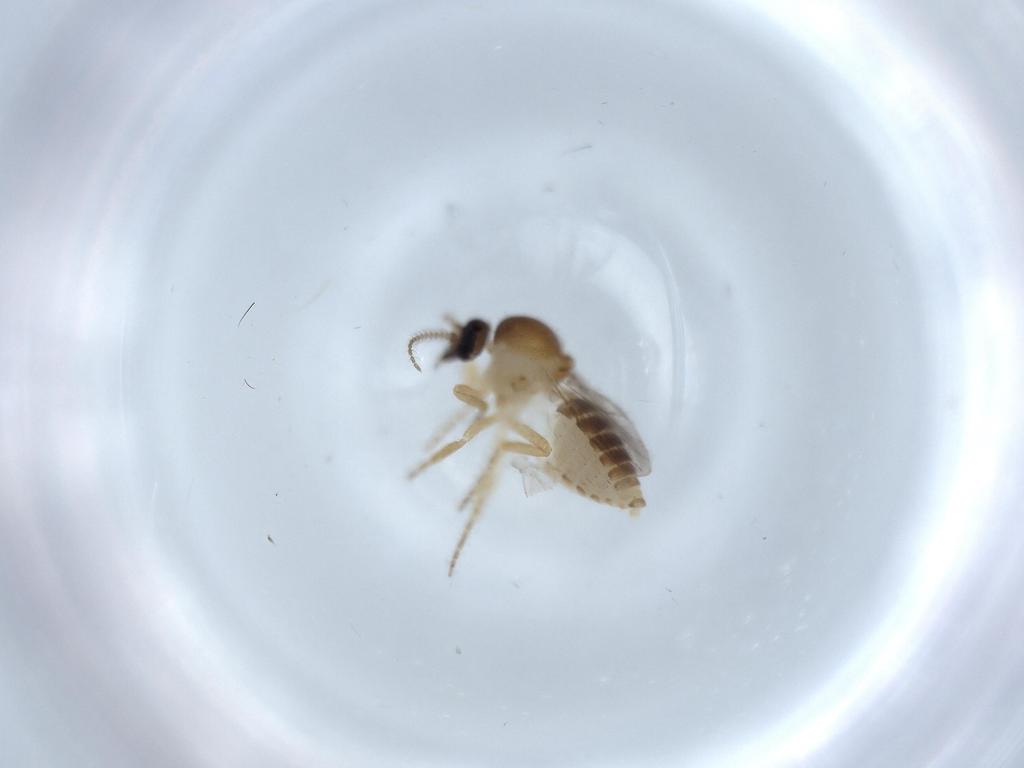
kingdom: Animalia
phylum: Arthropoda
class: Insecta
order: Diptera
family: Ceratopogonidae
